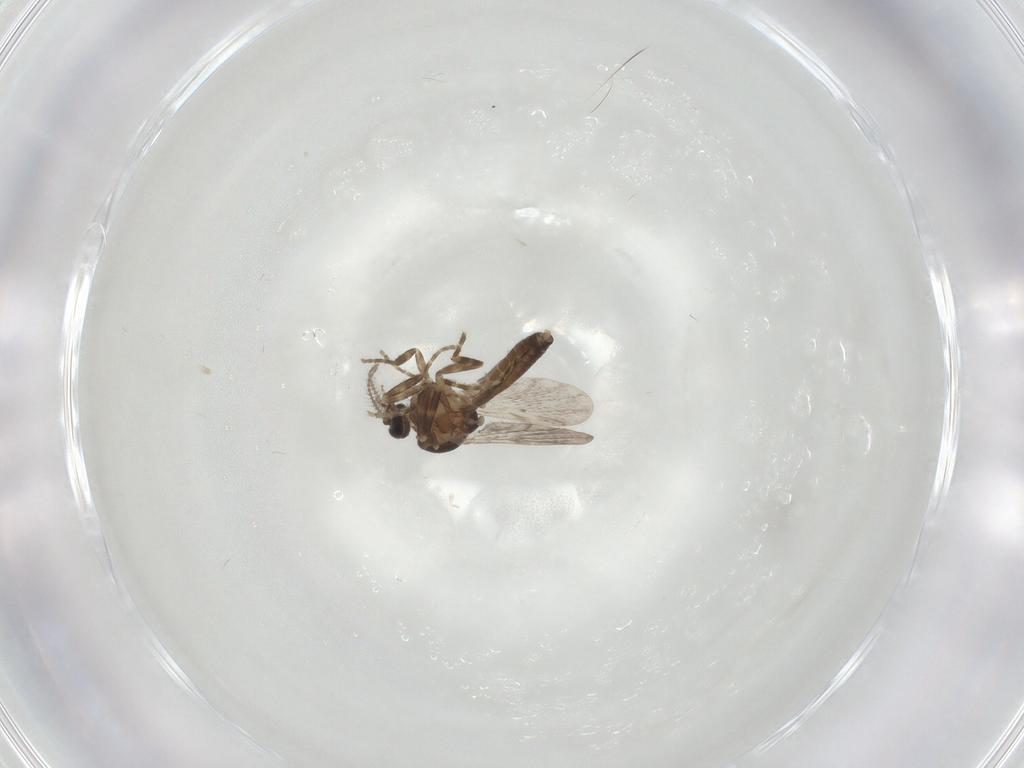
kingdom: Animalia
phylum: Arthropoda
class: Insecta
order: Diptera
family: Ceratopogonidae
